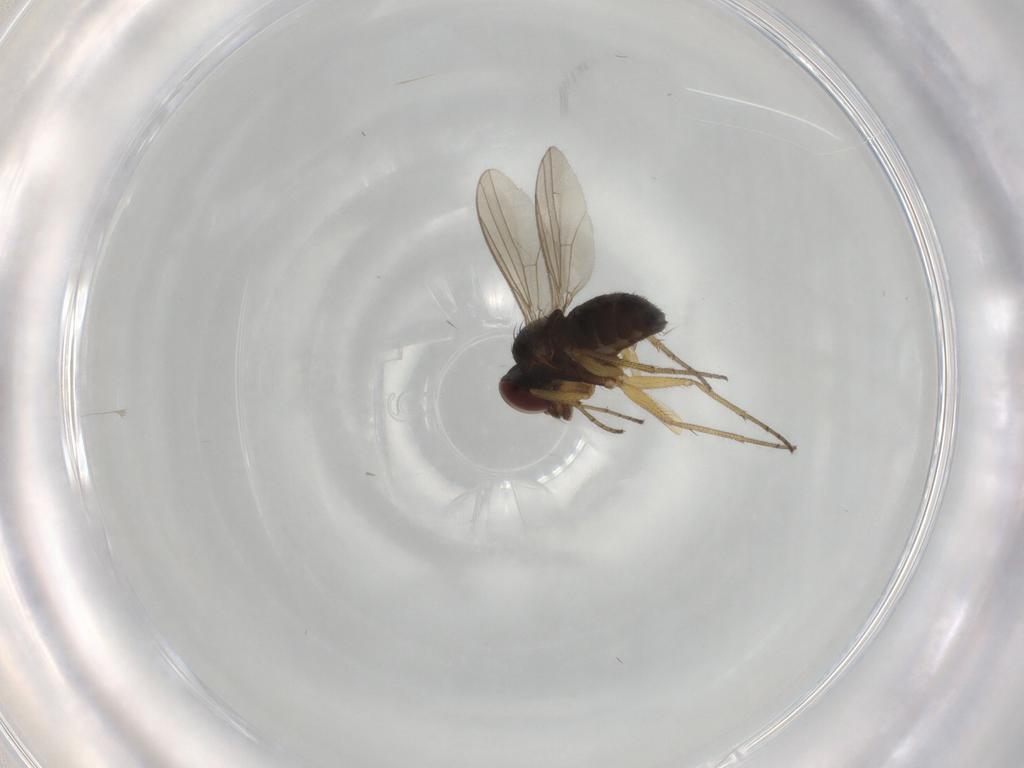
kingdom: Animalia
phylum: Arthropoda
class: Insecta
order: Diptera
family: Dolichopodidae
